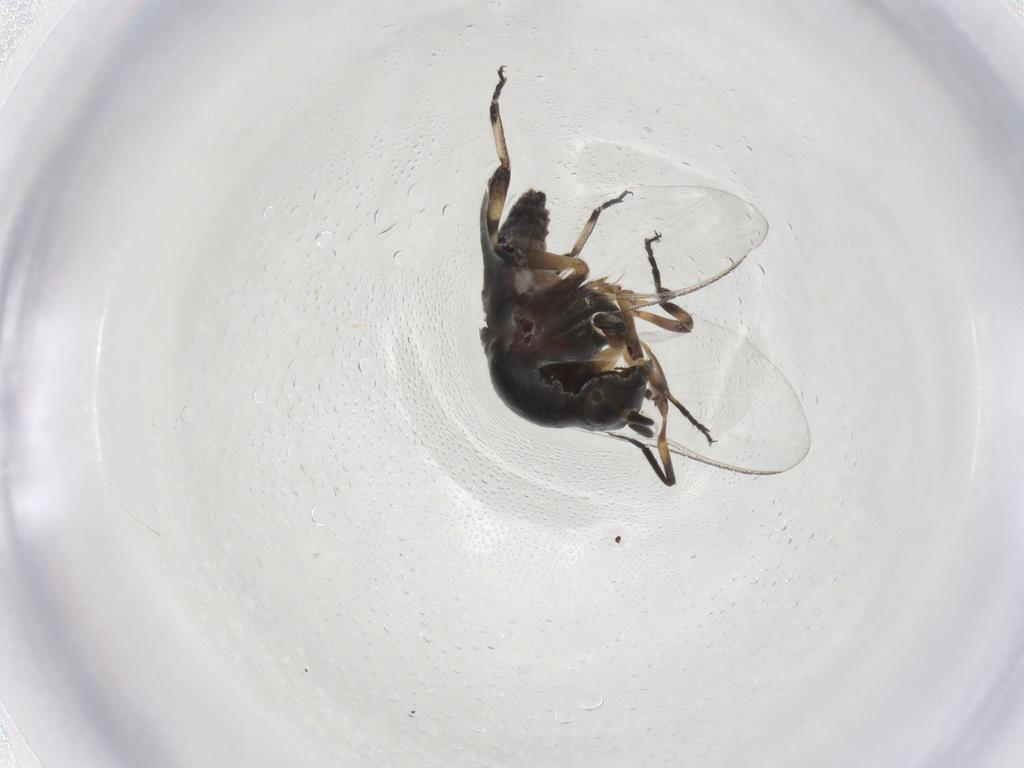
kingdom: Animalia
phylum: Arthropoda
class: Insecta
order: Diptera
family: Simuliidae
